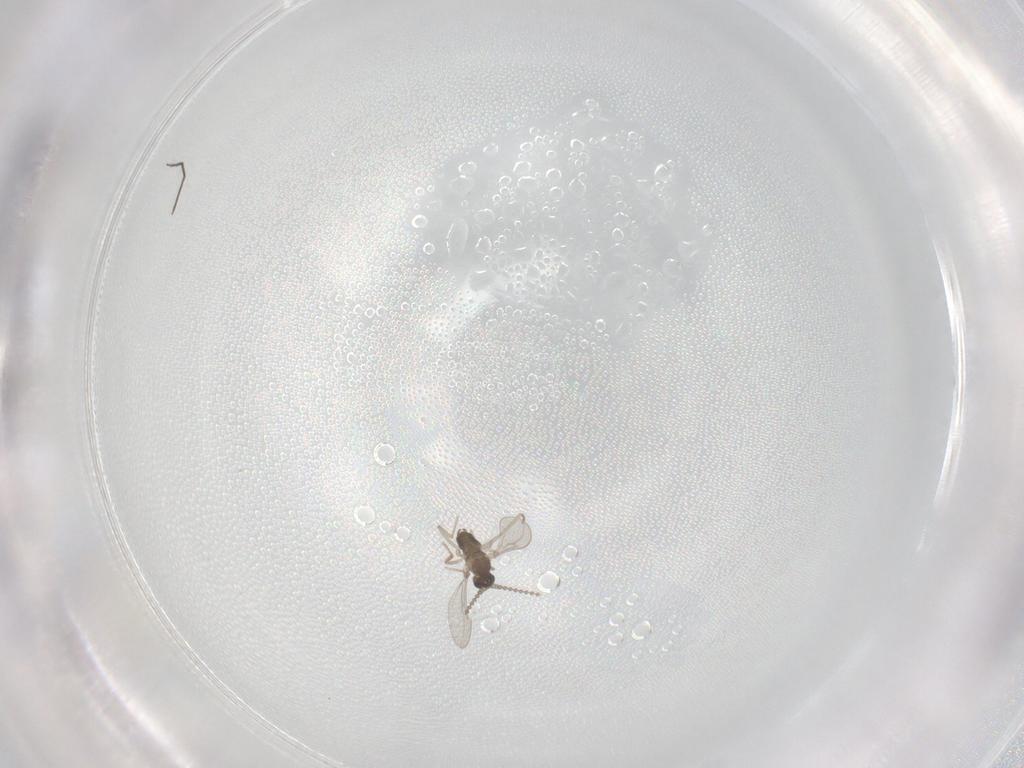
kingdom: Animalia
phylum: Arthropoda
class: Insecta
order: Diptera
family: Cecidomyiidae
